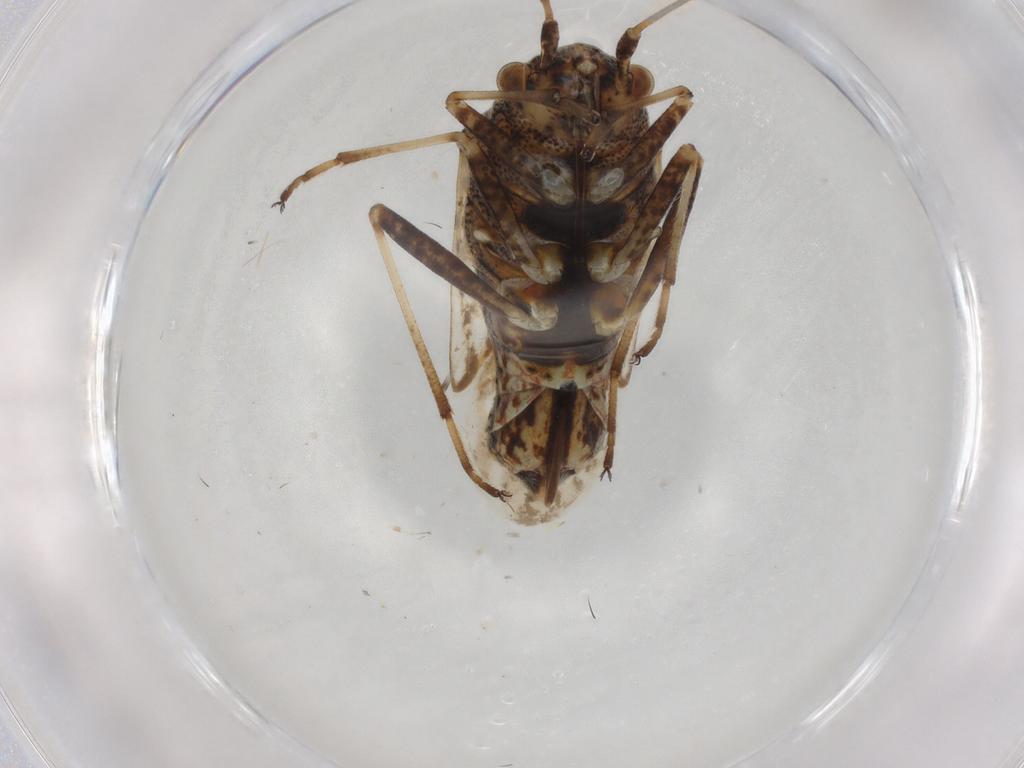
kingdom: Animalia
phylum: Arthropoda
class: Insecta
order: Hemiptera
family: Lygaeidae
